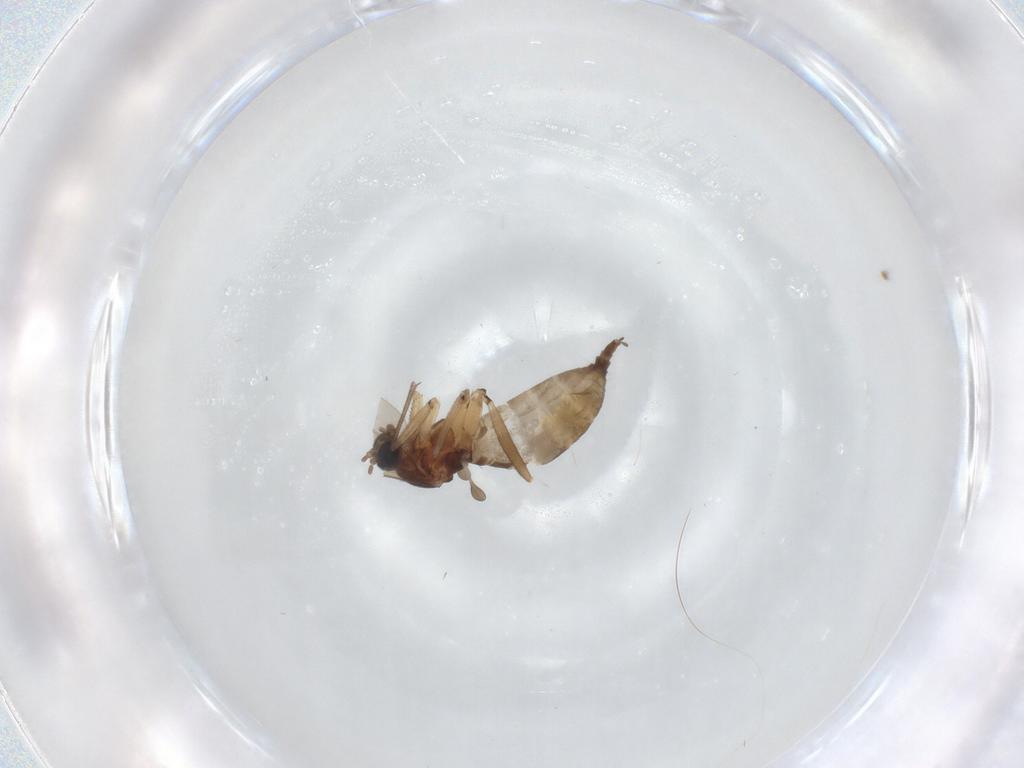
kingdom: Animalia
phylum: Arthropoda
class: Insecta
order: Diptera
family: Sciaridae
